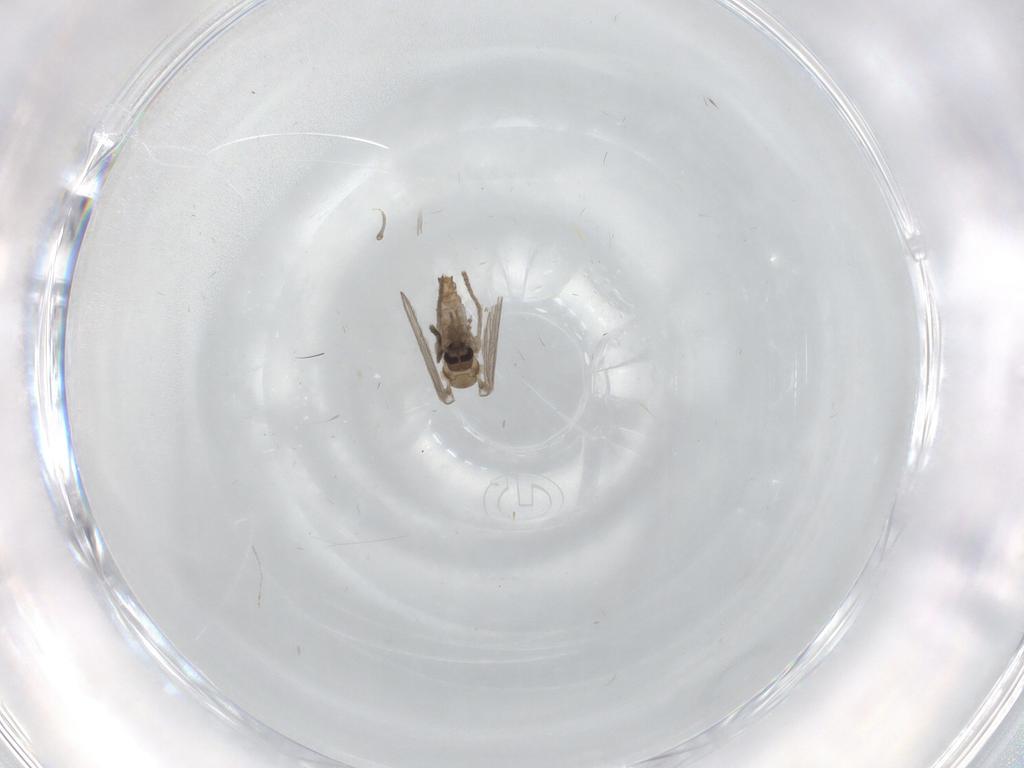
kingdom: Animalia
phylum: Arthropoda
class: Insecta
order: Diptera
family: Psychodidae
